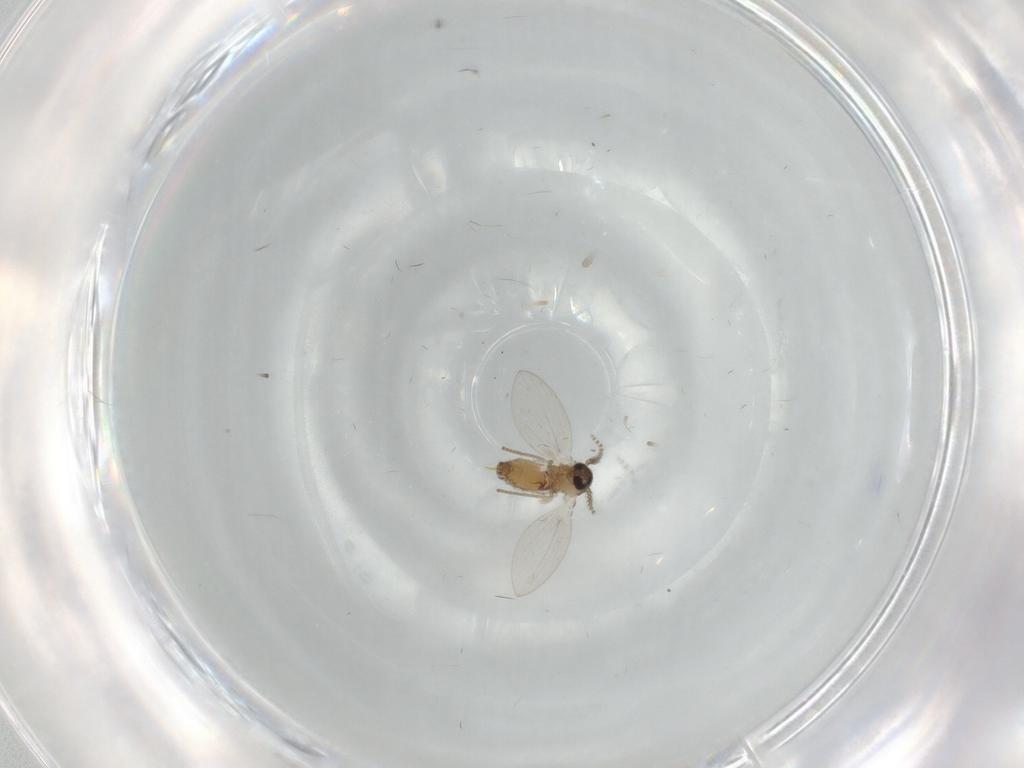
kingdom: Animalia
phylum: Arthropoda
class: Insecta
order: Diptera
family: Psychodidae
